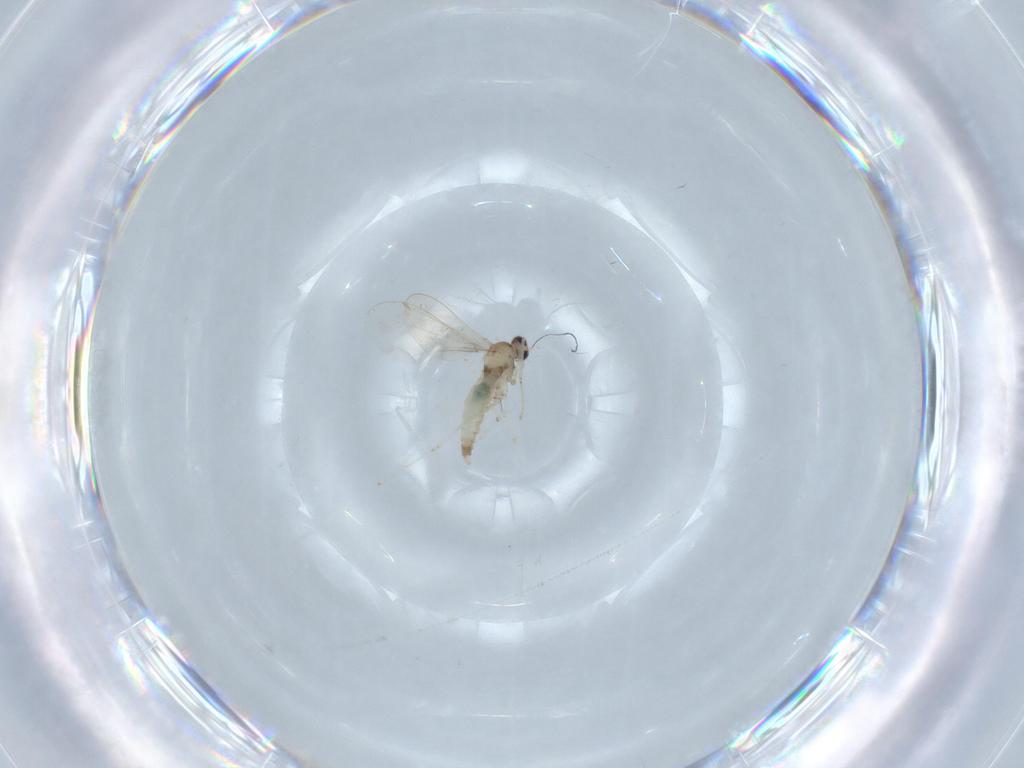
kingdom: Animalia
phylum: Arthropoda
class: Insecta
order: Diptera
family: Chironomidae
